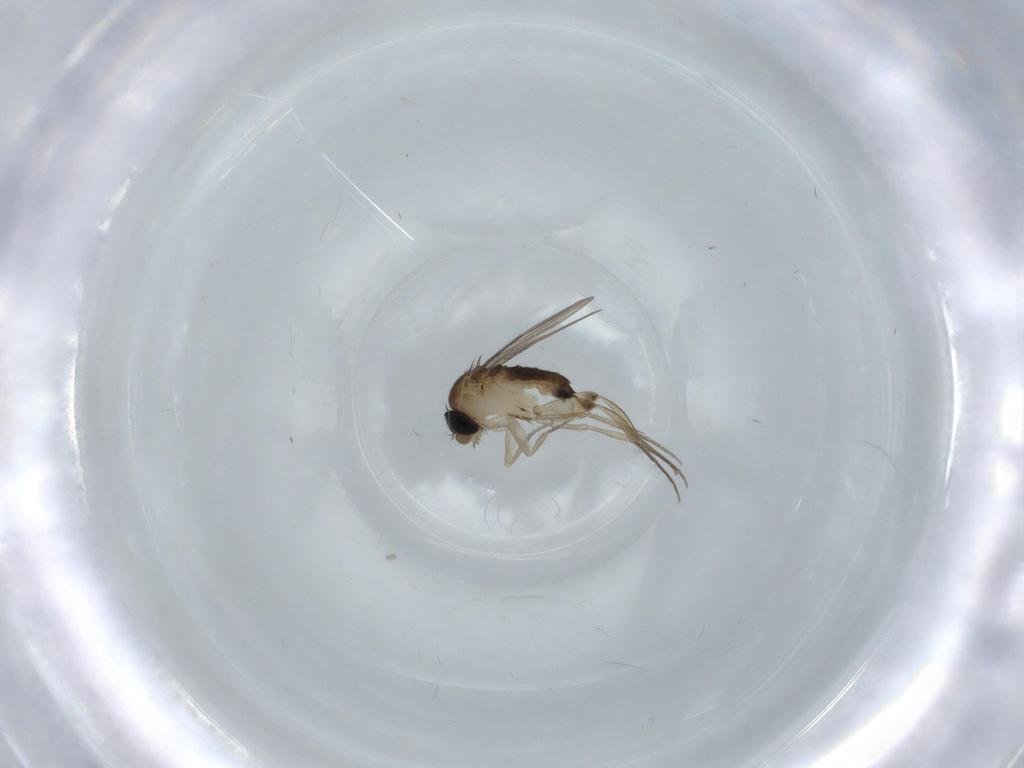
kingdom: Animalia
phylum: Arthropoda
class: Insecta
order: Diptera
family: Phoridae
